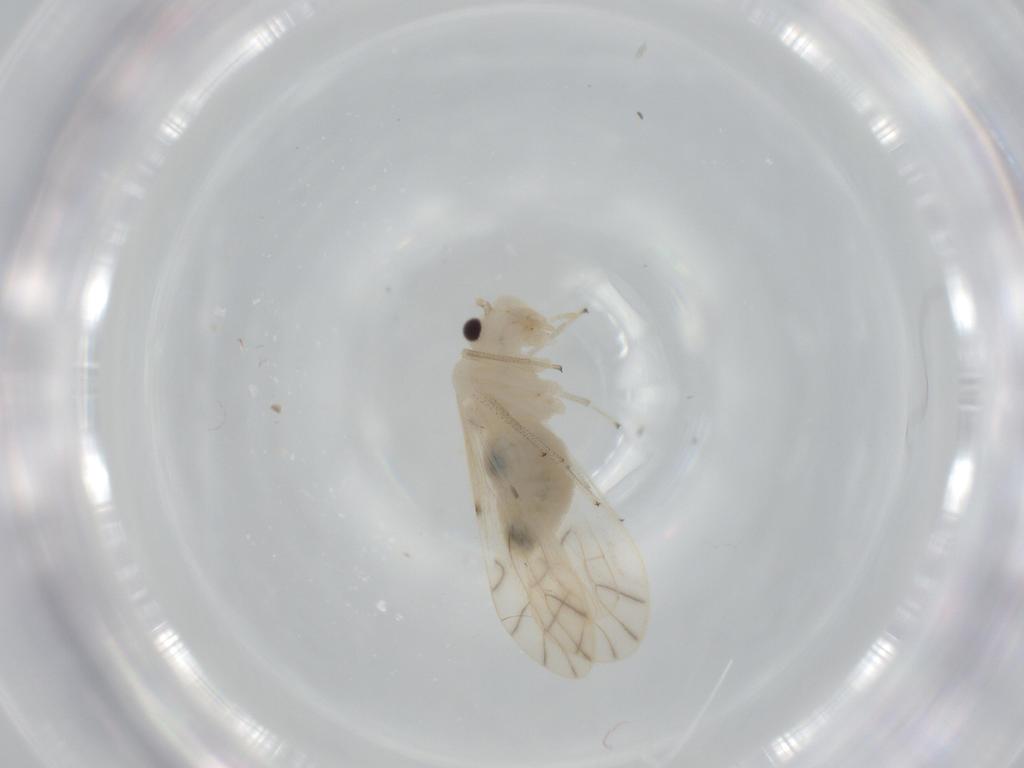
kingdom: Animalia
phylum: Arthropoda
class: Insecta
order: Psocodea
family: Caeciliusidae
